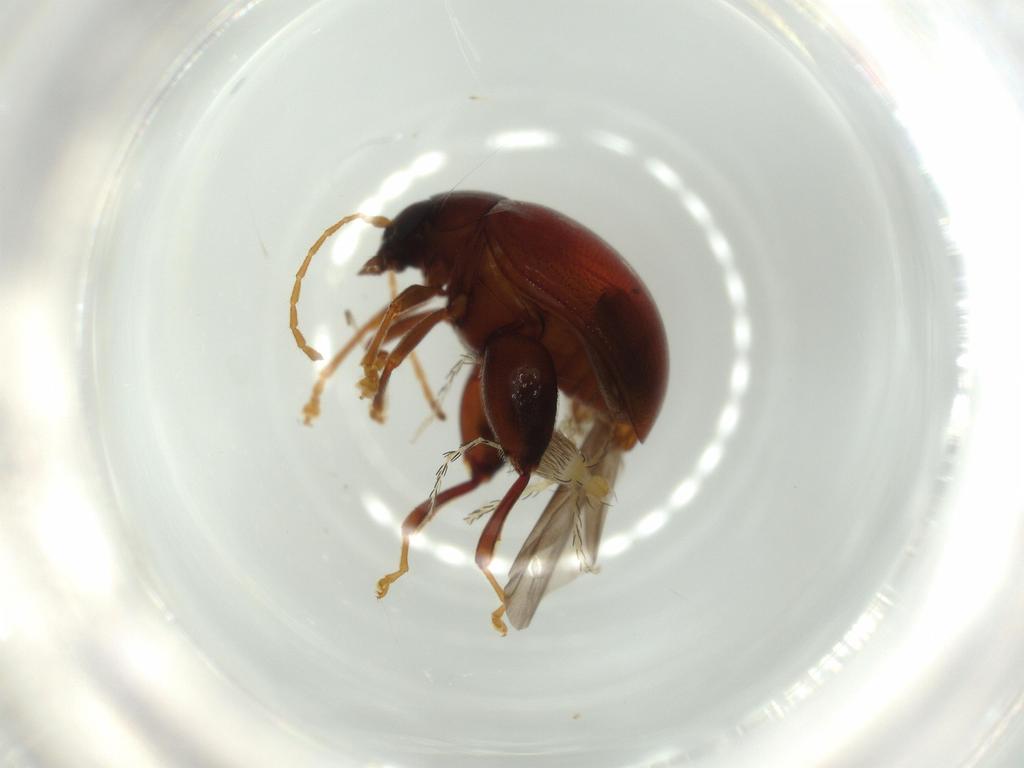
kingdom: Animalia
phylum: Arthropoda
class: Arachnida
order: Trombidiformes
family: Erythraeidae
